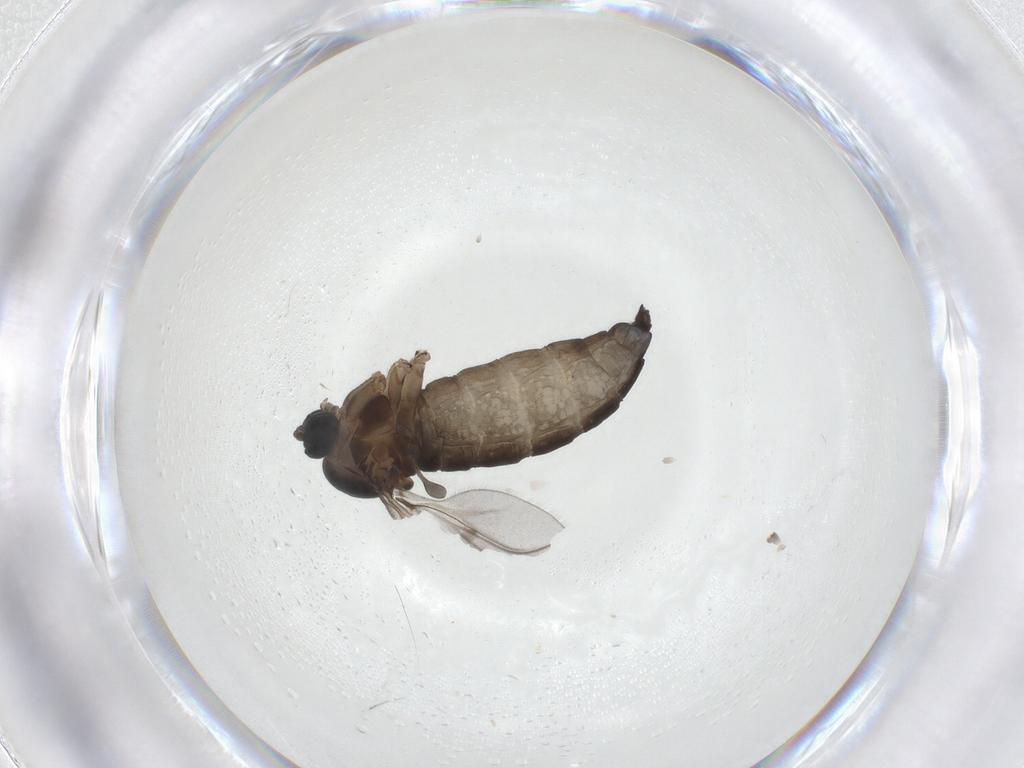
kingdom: Animalia
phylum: Arthropoda
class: Insecta
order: Diptera
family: Sciaridae
